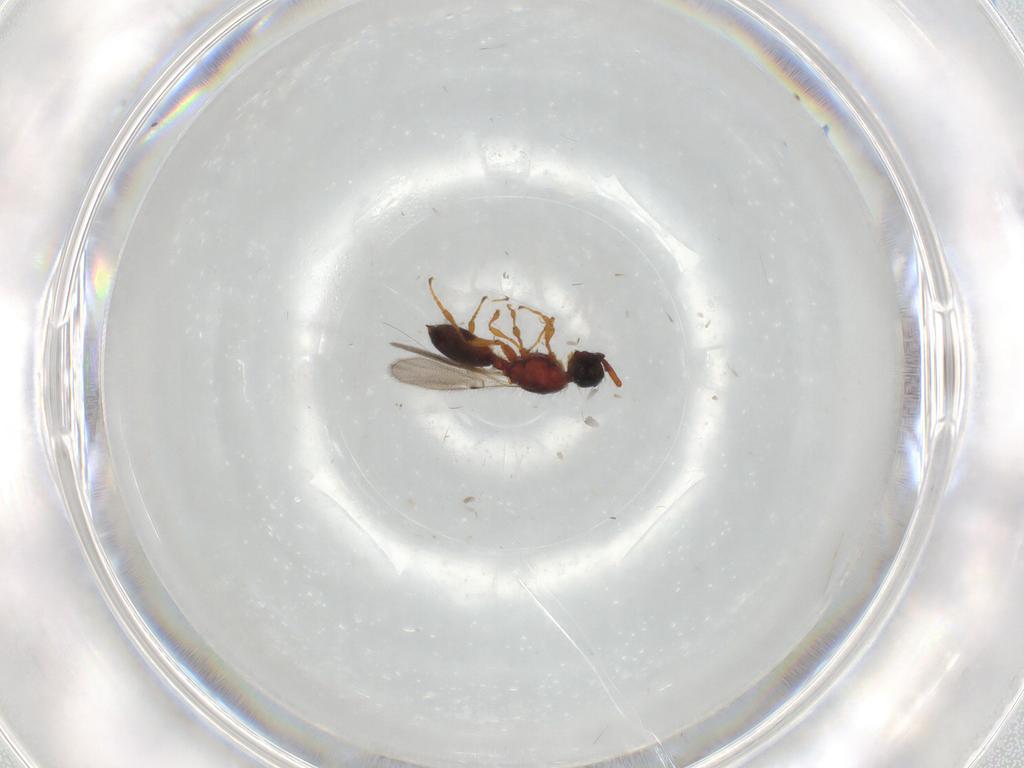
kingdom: Animalia
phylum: Arthropoda
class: Insecta
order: Hymenoptera
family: Diapriidae
